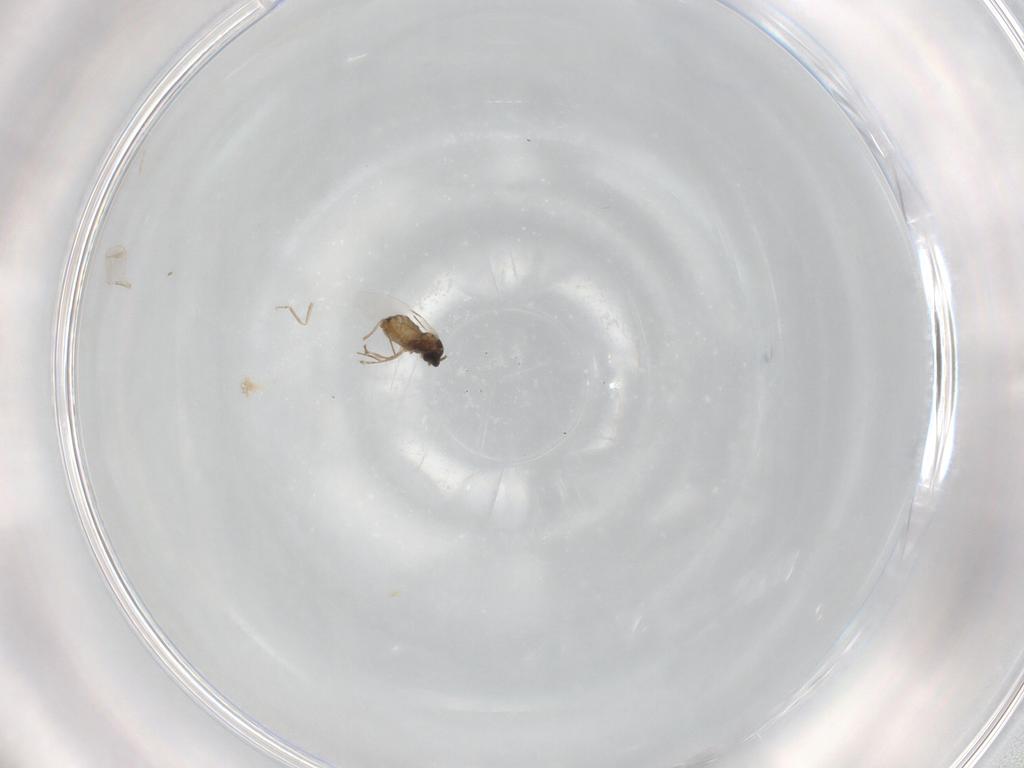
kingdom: Animalia
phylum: Arthropoda
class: Insecta
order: Diptera
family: Cecidomyiidae
